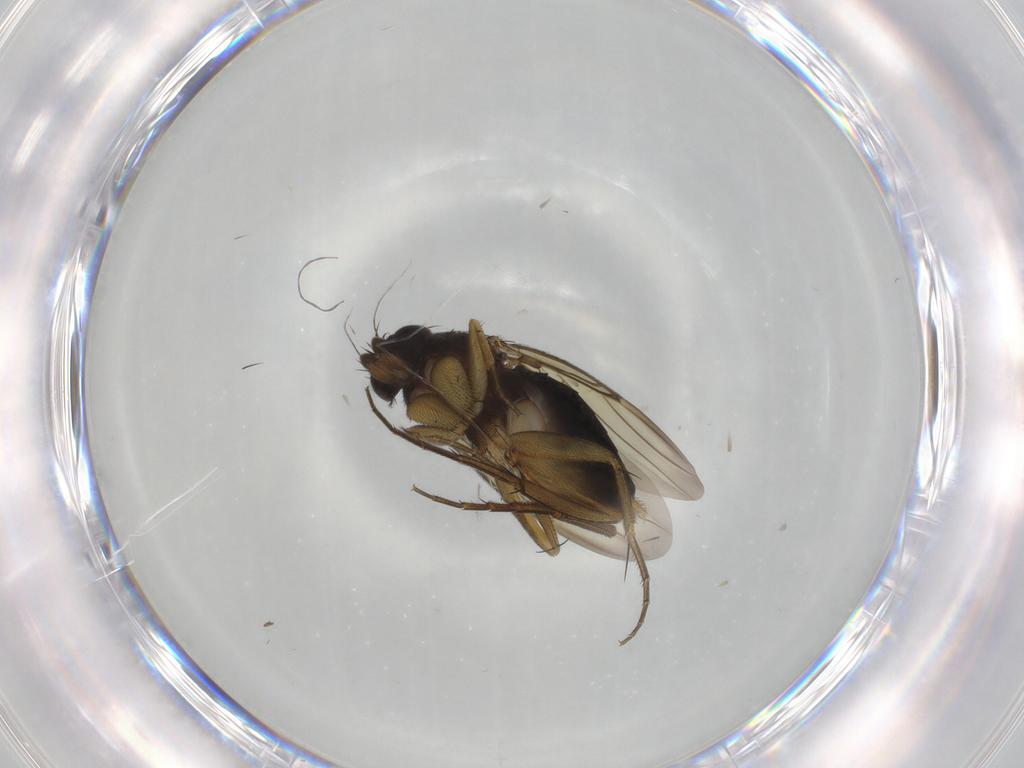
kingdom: Animalia
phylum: Arthropoda
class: Insecta
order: Diptera
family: Phoridae
